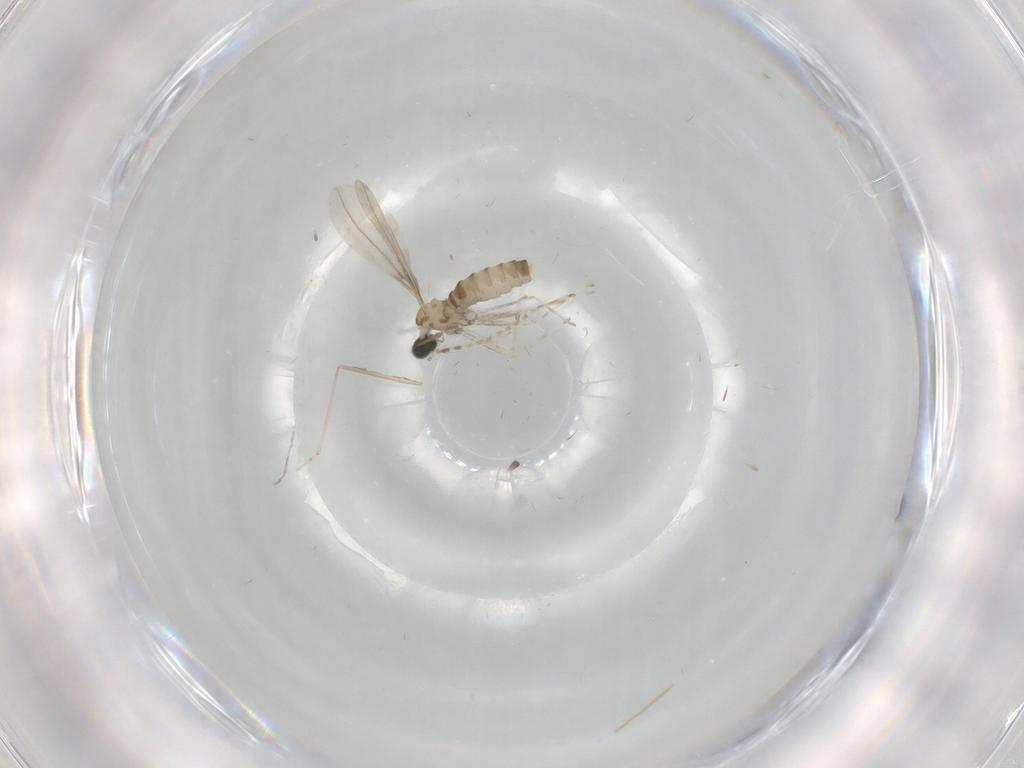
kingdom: Animalia
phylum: Arthropoda
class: Insecta
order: Diptera
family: Cecidomyiidae
